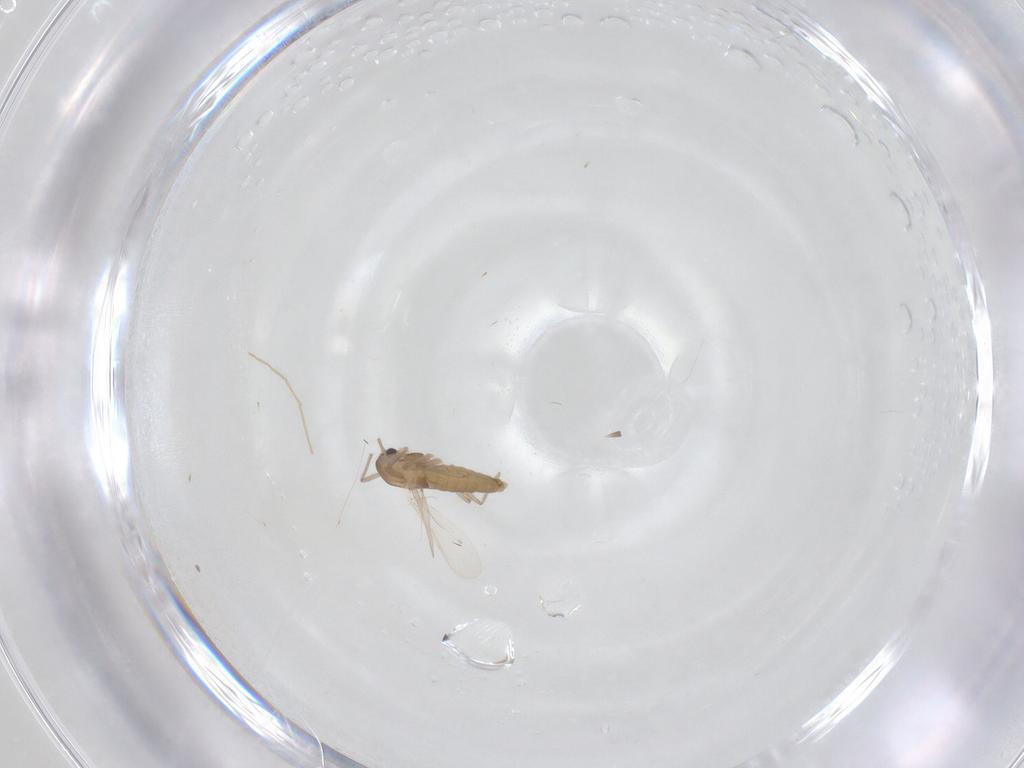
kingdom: Animalia
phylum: Arthropoda
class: Insecta
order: Diptera
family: Chironomidae
